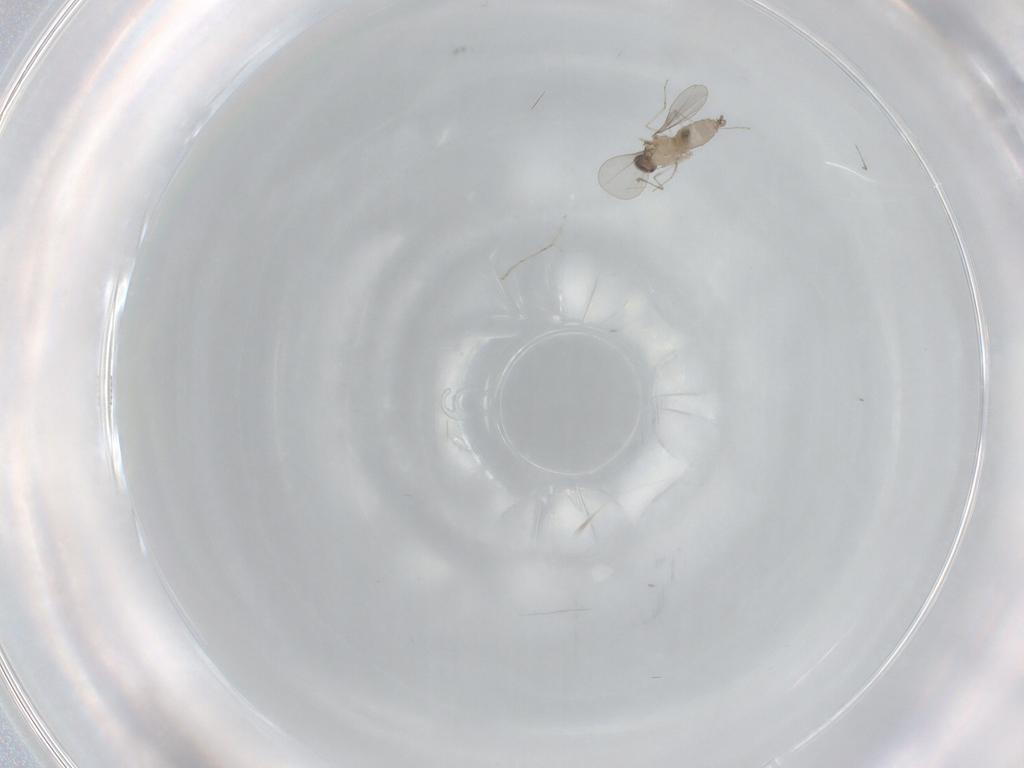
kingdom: Animalia
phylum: Arthropoda
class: Insecta
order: Diptera
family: Cecidomyiidae
